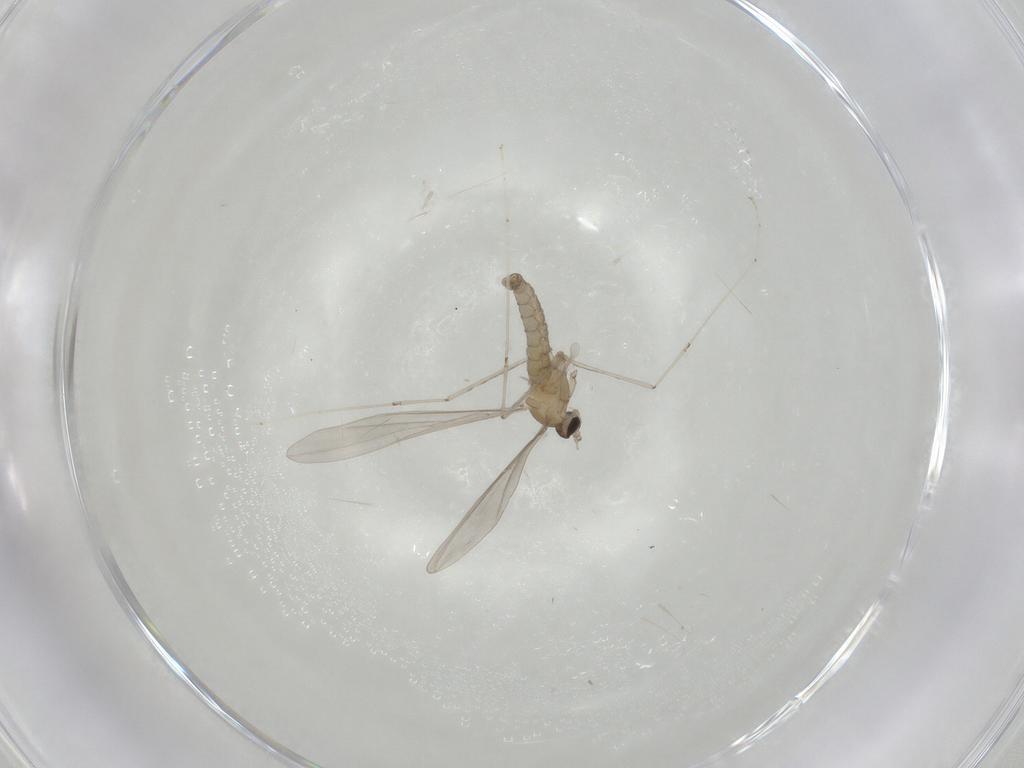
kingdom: Animalia
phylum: Arthropoda
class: Insecta
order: Diptera
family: Cecidomyiidae
